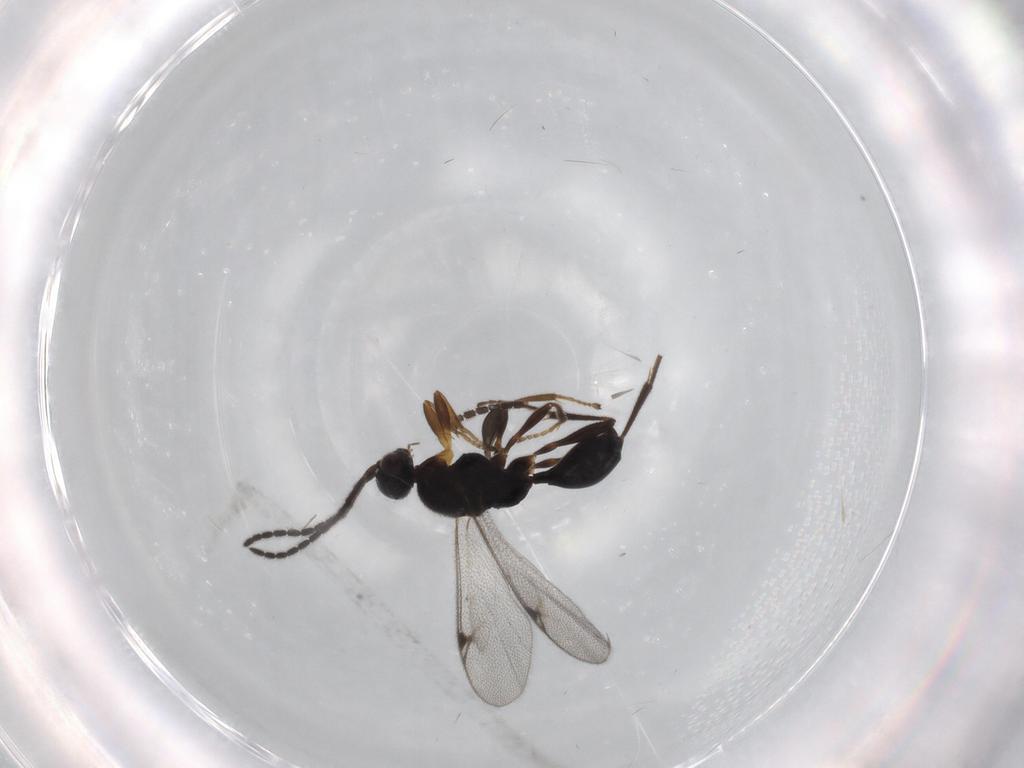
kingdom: Animalia
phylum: Arthropoda
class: Insecta
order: Hymenoptera
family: Proctotrupidae
